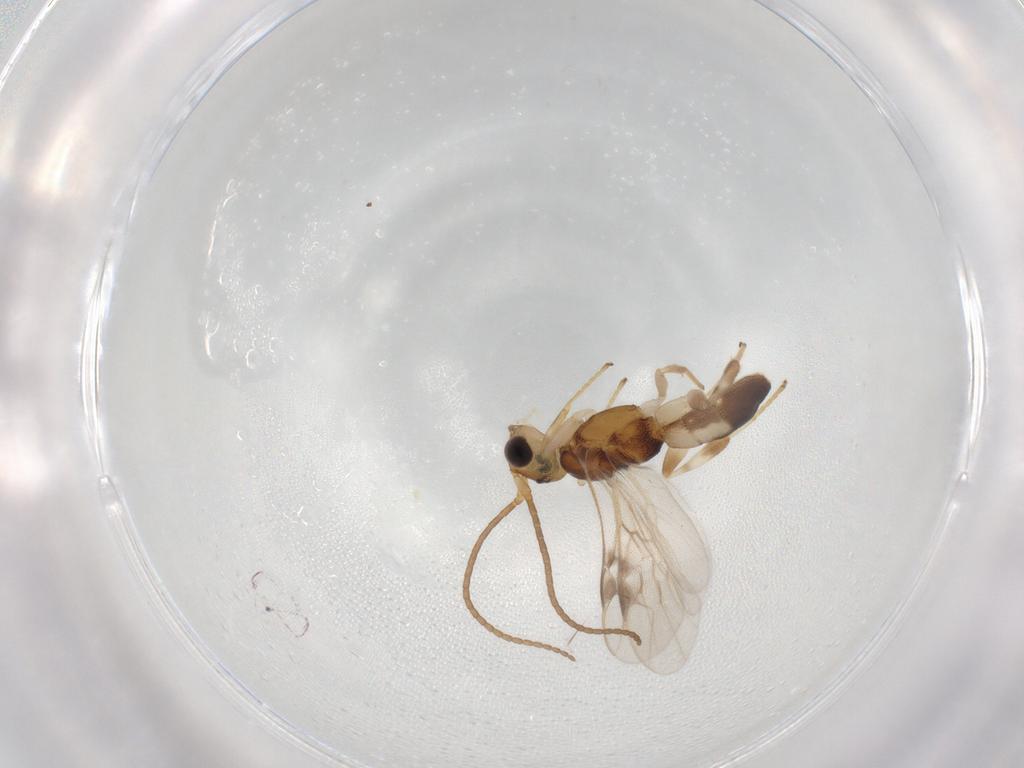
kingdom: Animalia
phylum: Arthropoda
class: Insecta
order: Hymenoptera
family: Braconidae
